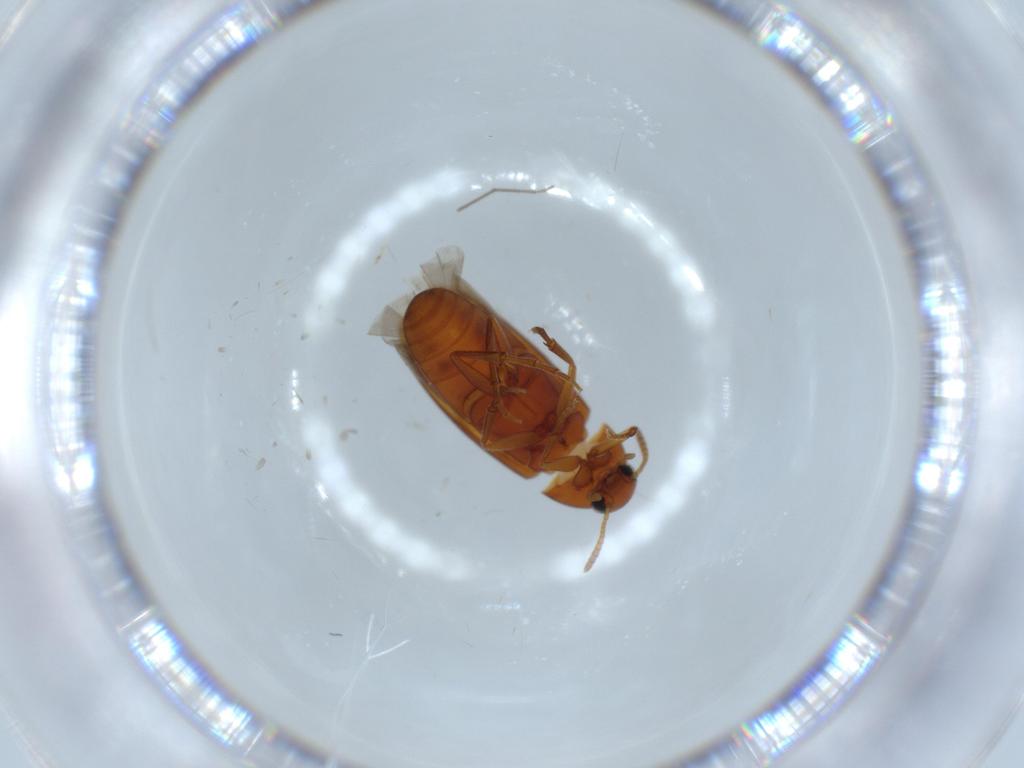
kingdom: Animalia
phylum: Arthropoda
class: Insecta
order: Coleoptera
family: Scraptiidae
